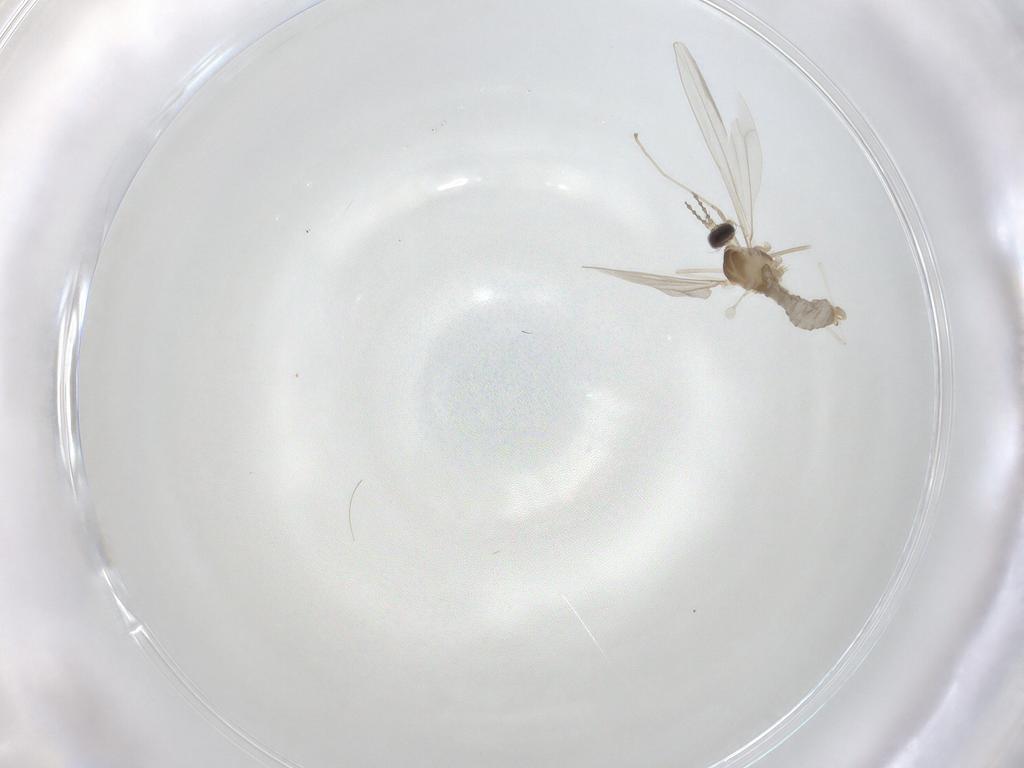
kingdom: Animalia
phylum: Arthropoda
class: Insecta
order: Diptera
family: Cecidomyiidae
